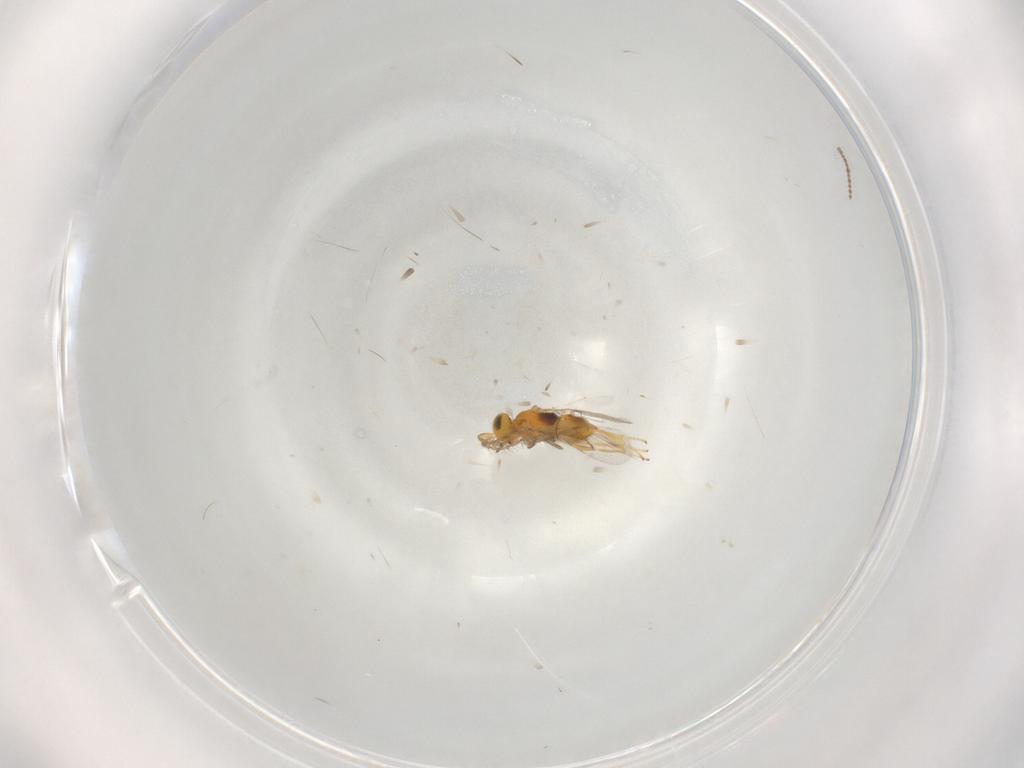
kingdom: Animalia
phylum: Arthropoda
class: Insecta
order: Hymenoptera
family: Encyrtidae
